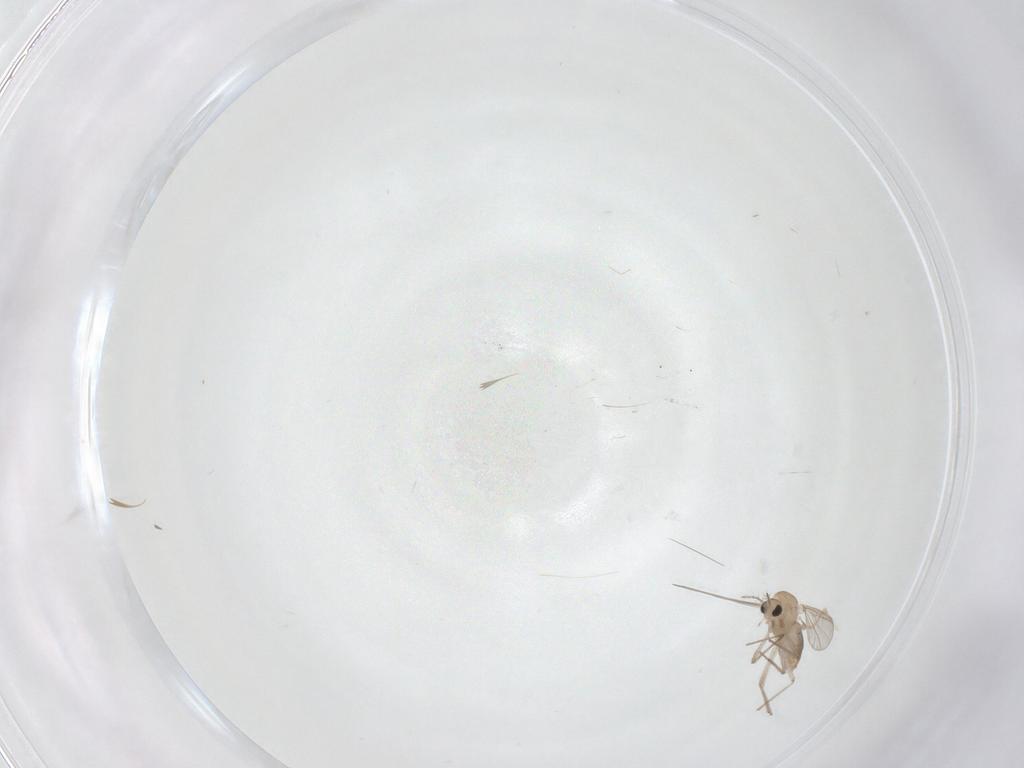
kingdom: Animalia
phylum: Arthropoda
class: Insecta
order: Diptera
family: Chironomidae
